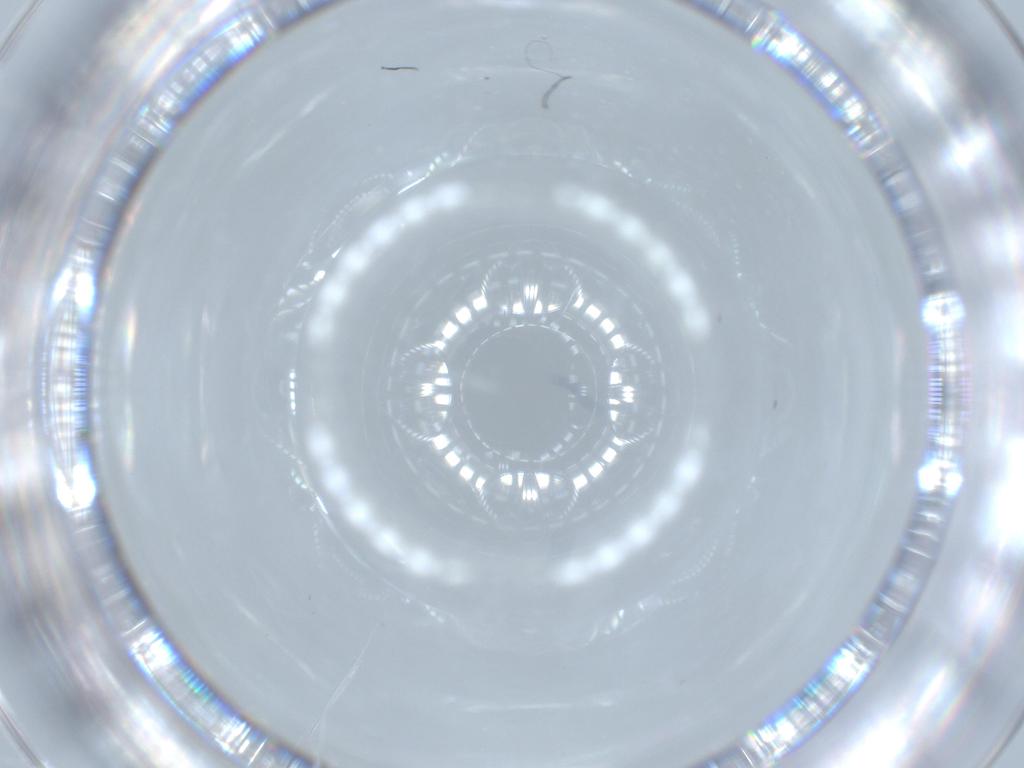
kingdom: Animalia
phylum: Arthropoda
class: Insecta
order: Diptera
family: Cecidomyiidae
